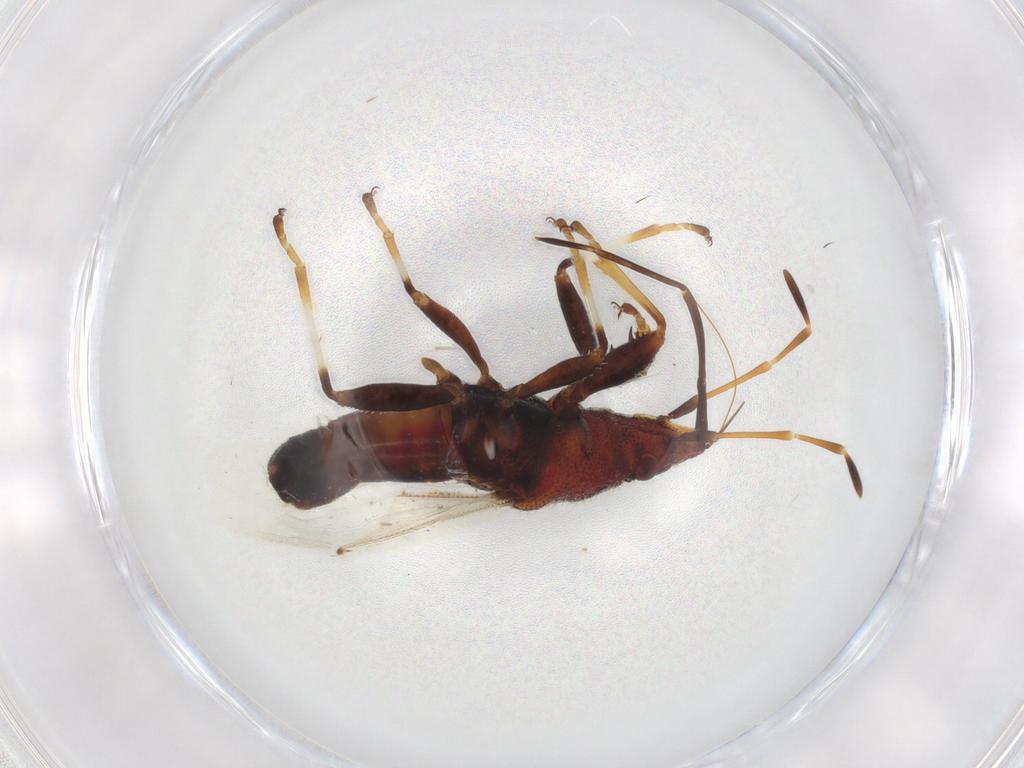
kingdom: Animalia
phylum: Arthropoda
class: Insecta
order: Hemiptera
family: Oxycarenidae
